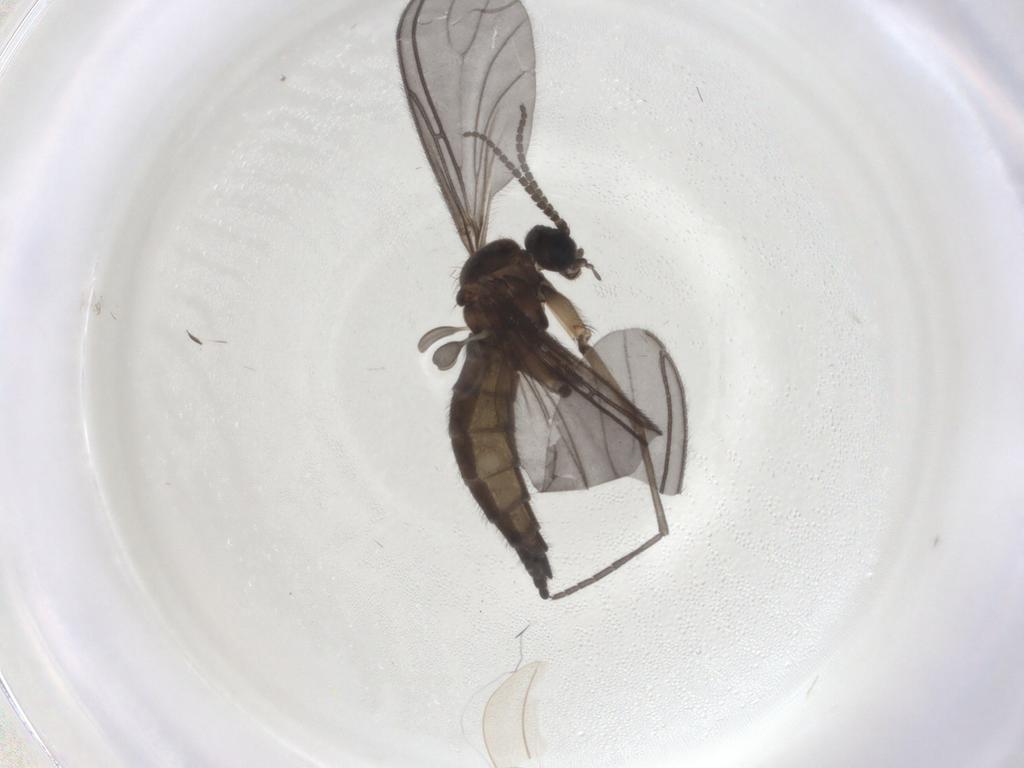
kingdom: Animalia
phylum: Arthropoda
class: Insecta
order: Diptera
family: Sciaridae
